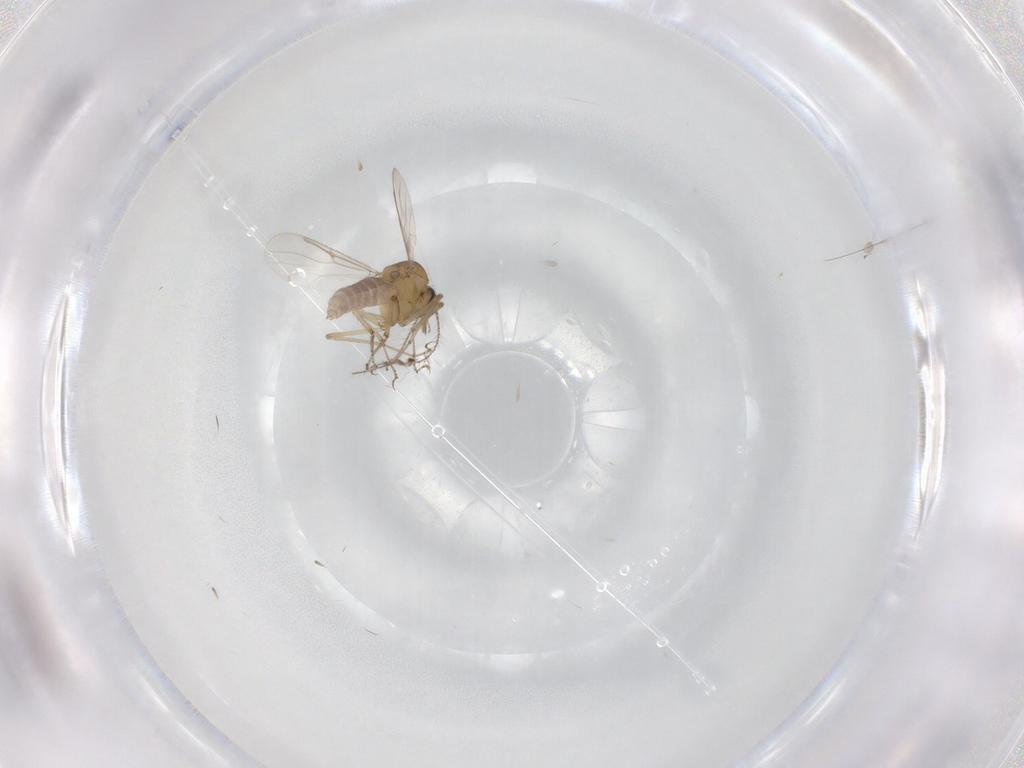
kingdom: Animalia
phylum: Arthropoda
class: Insecta
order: Diptera
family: Ceratopogonidae
